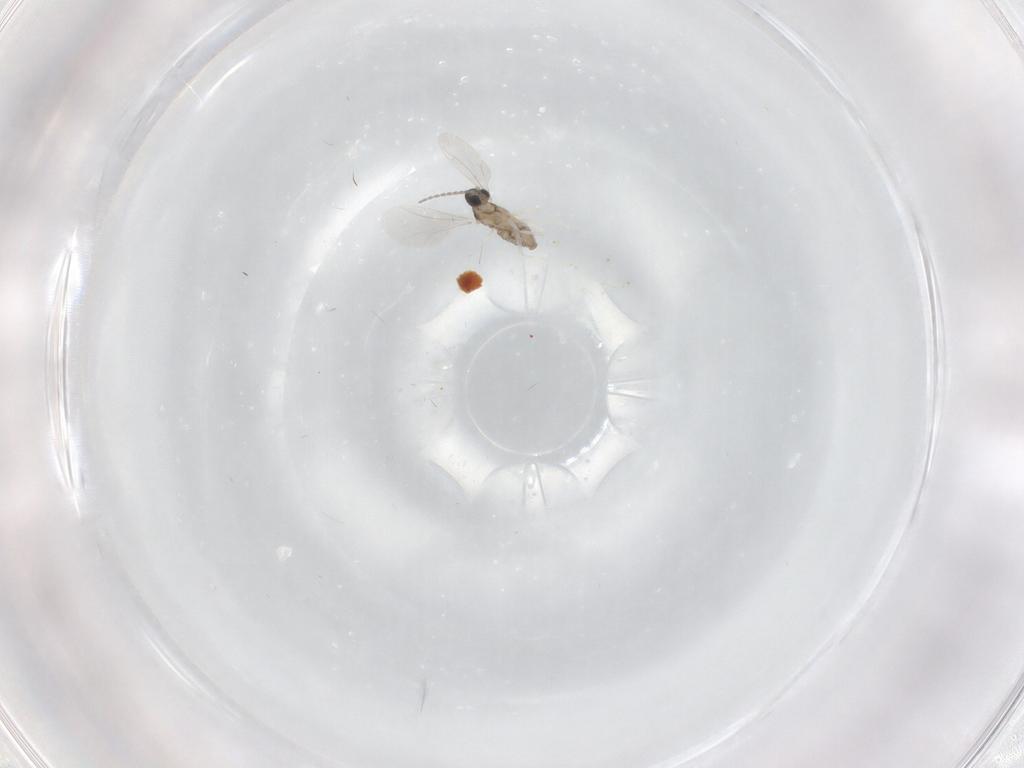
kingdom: Animalia
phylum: Arthropoda
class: Insecta
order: Diptera
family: Cecidomyiidae
